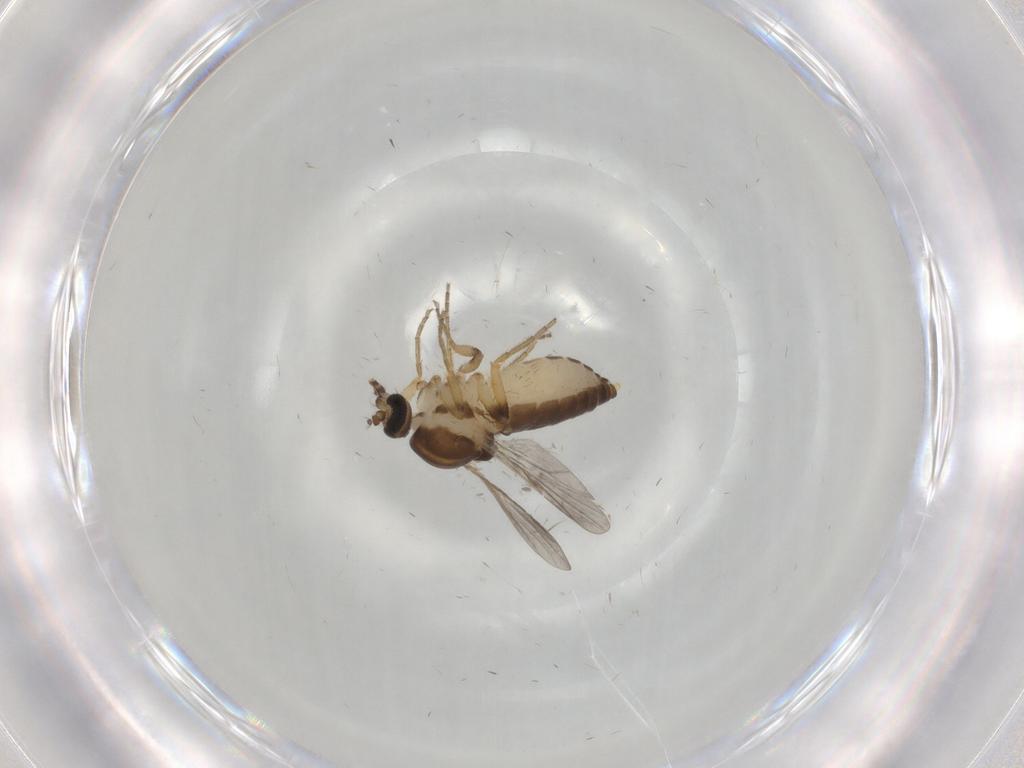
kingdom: Animalia
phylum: Arthropoda
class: Insecta
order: Diptera
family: Ceratopogonidae
